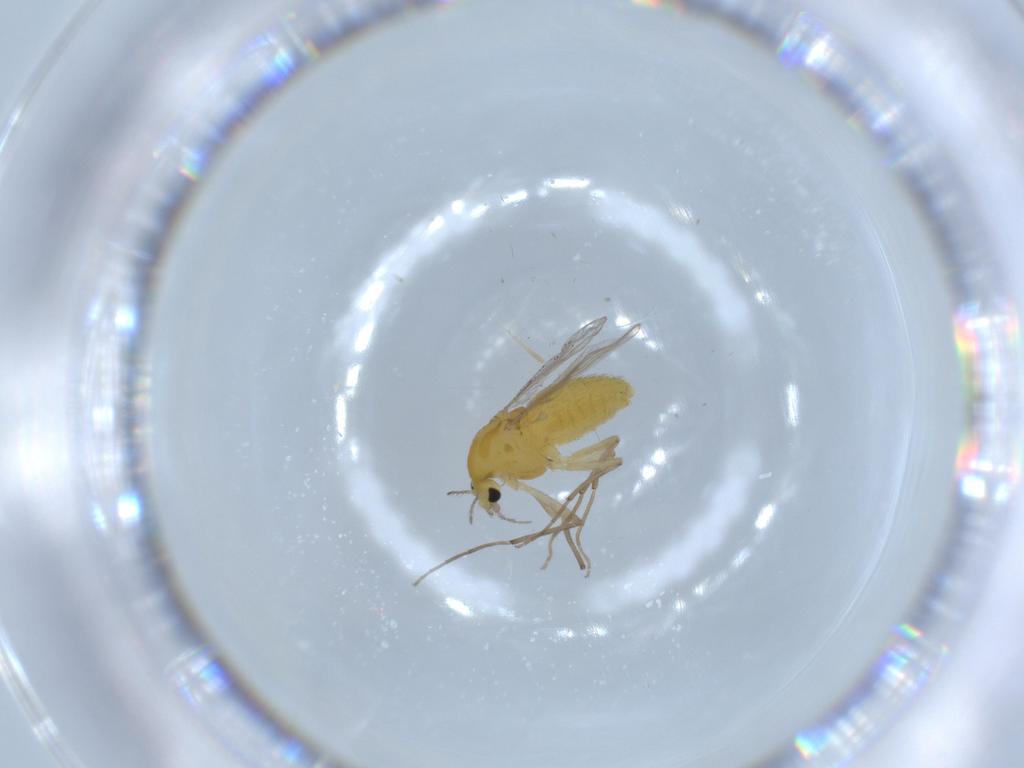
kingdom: Animalia
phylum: Arthropoda
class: Insecta
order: Diptera
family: Chironomidae
